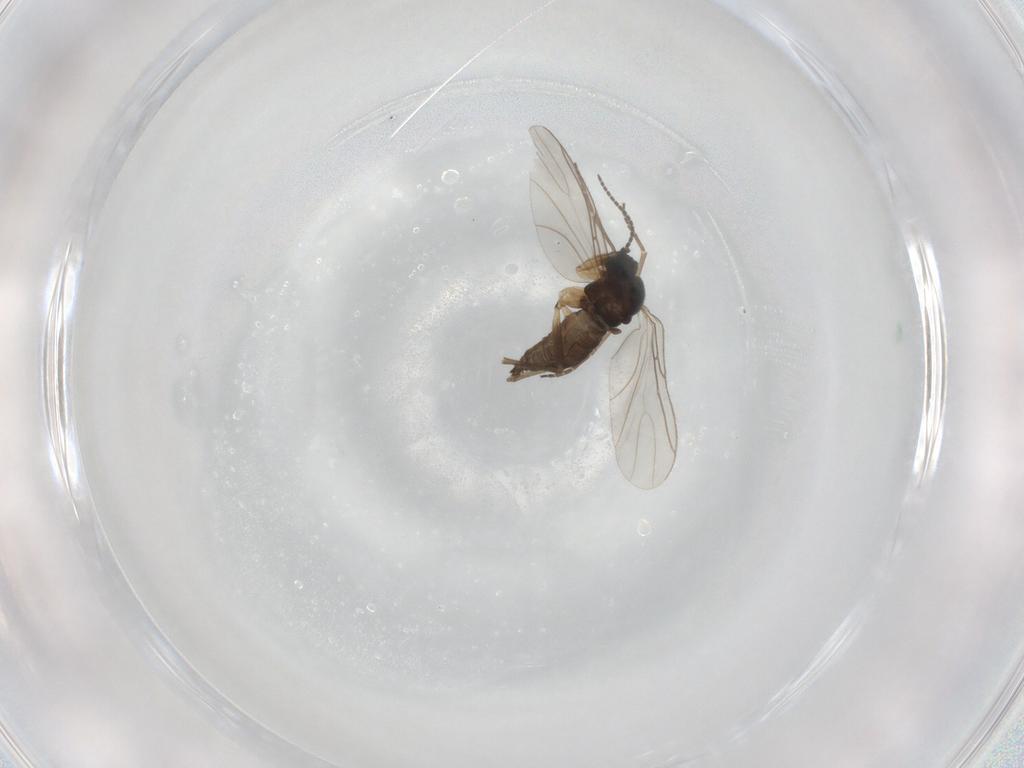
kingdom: Animalia
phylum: Arthropoda
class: Insecta
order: Diptera
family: Sciaridae
